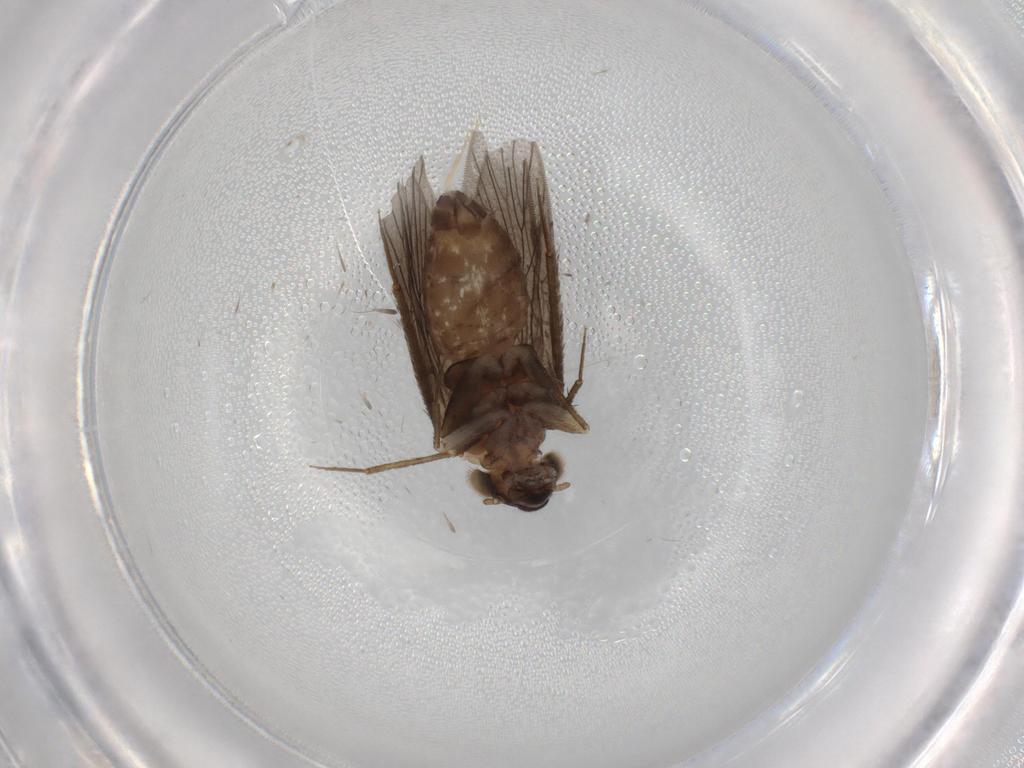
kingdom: Animalia
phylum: Arthropoda
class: Insecta
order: Psocodea
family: Lepidopsocidae
